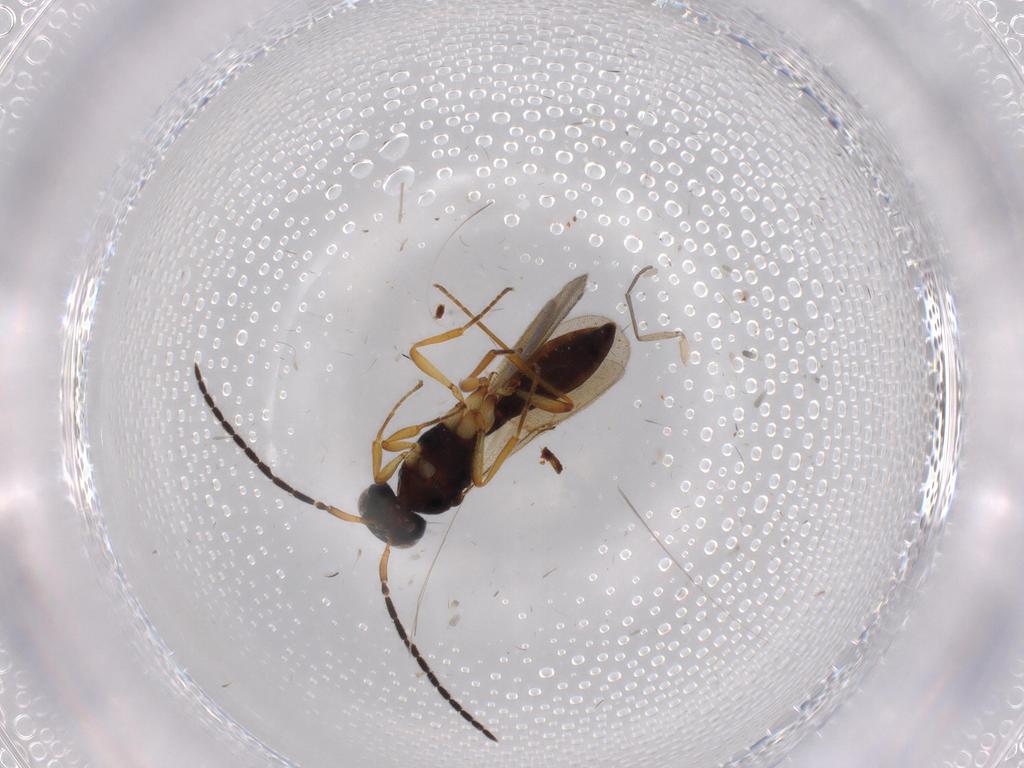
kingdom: Animalia
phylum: Arthropoda
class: Insecta
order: Hymenoptera
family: Scelionidae
